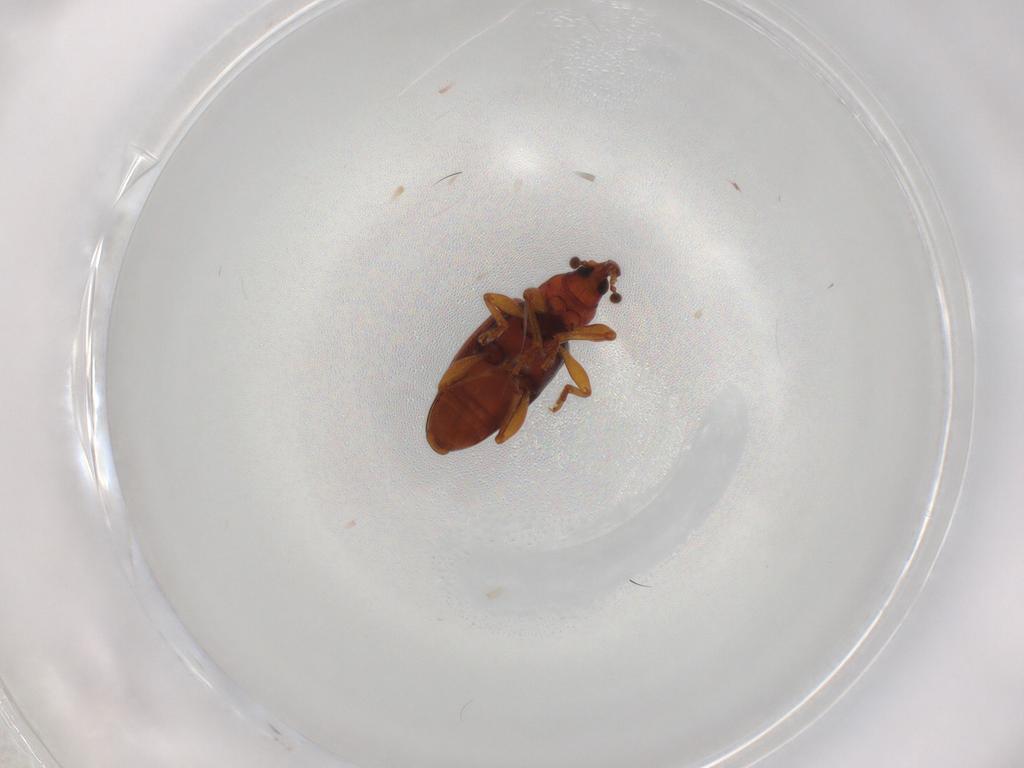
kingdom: Animalia
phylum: Arthropoda
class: Insecta
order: Coleoptera
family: Curculionidae
